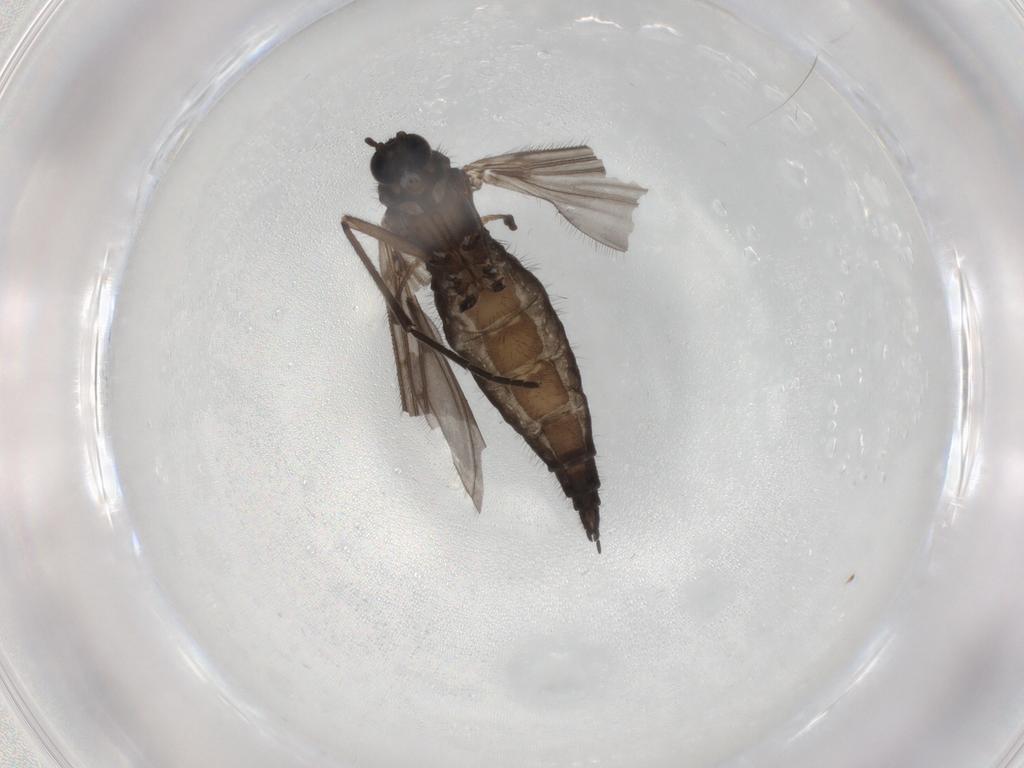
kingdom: Animalia
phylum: Arthropoda
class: Insecta
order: Diptera
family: Sciaridae
